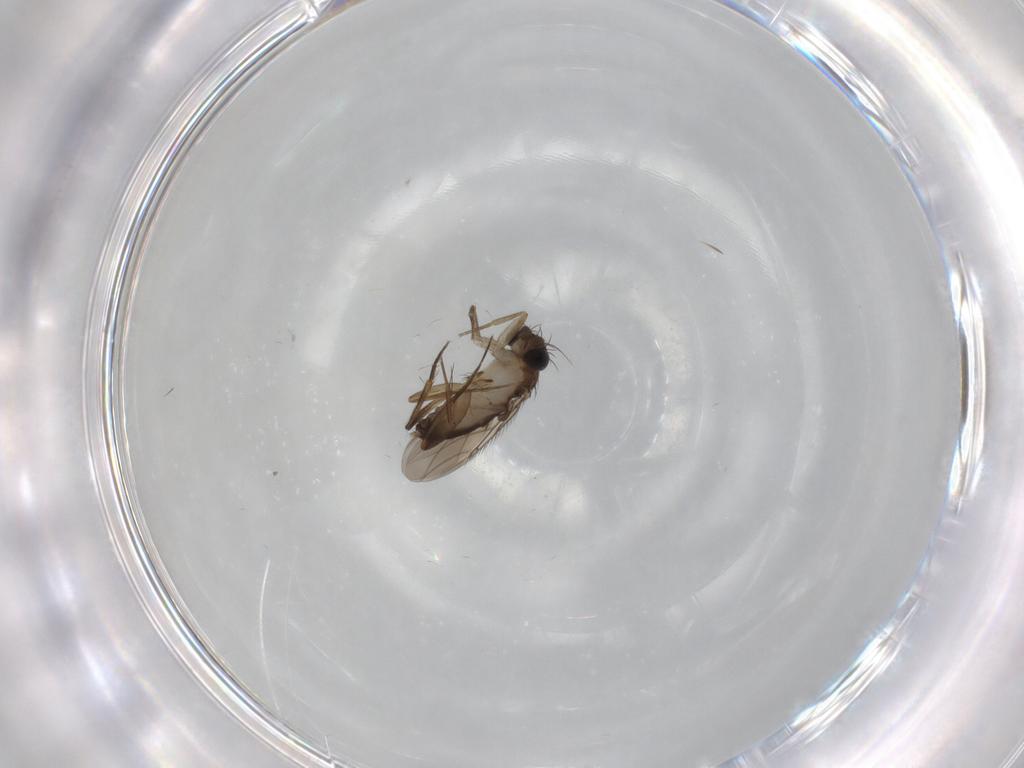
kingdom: Animalia
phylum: Arthropoda
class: Insecta
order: Diptera
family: Phoridae
